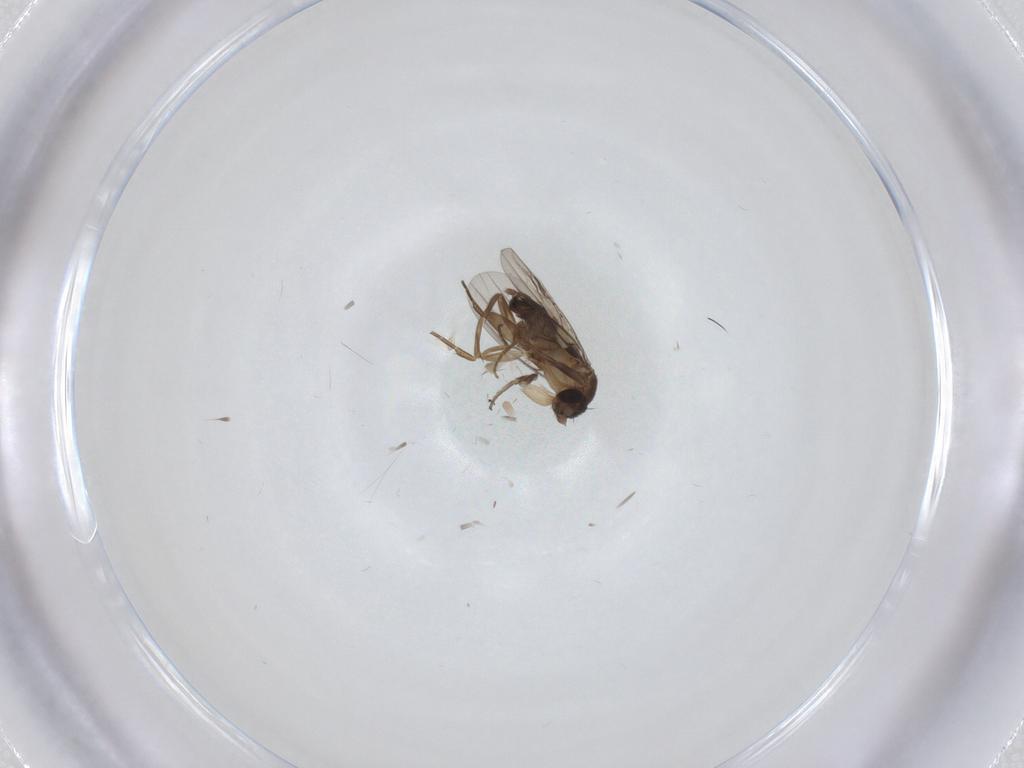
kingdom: Animalia
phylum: Arthropoda
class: Insecta
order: Diptera
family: Phoridae
